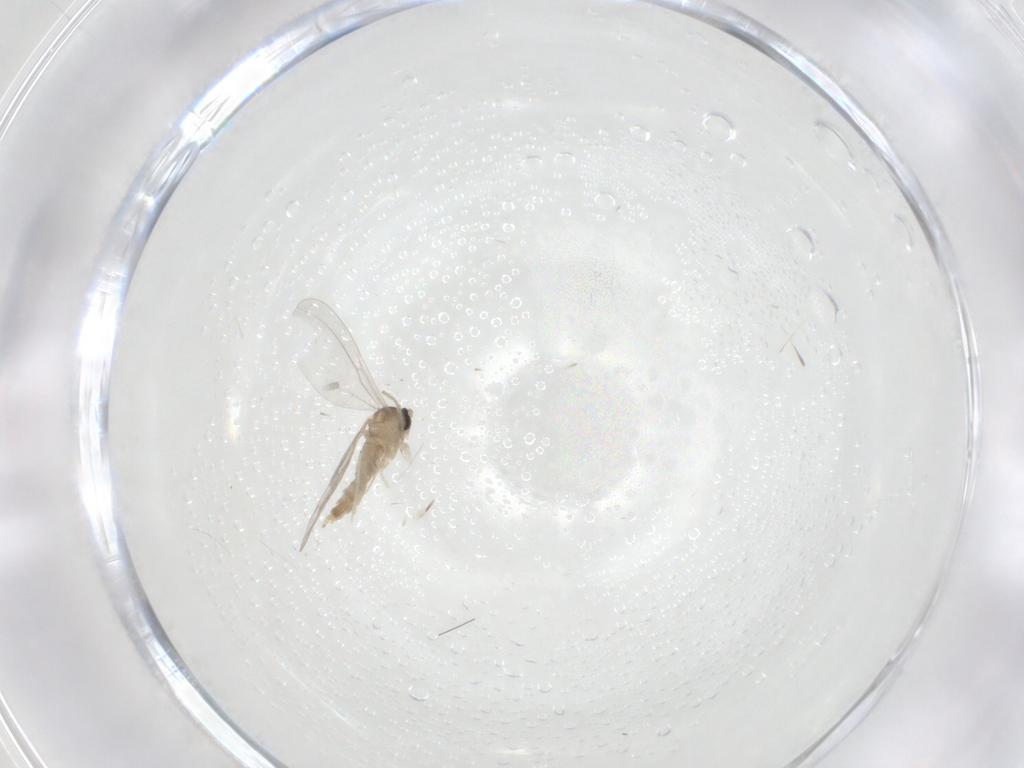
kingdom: Animalia
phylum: Arthropoda
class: Insecta
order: Diptera
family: Cecidomyiidae
